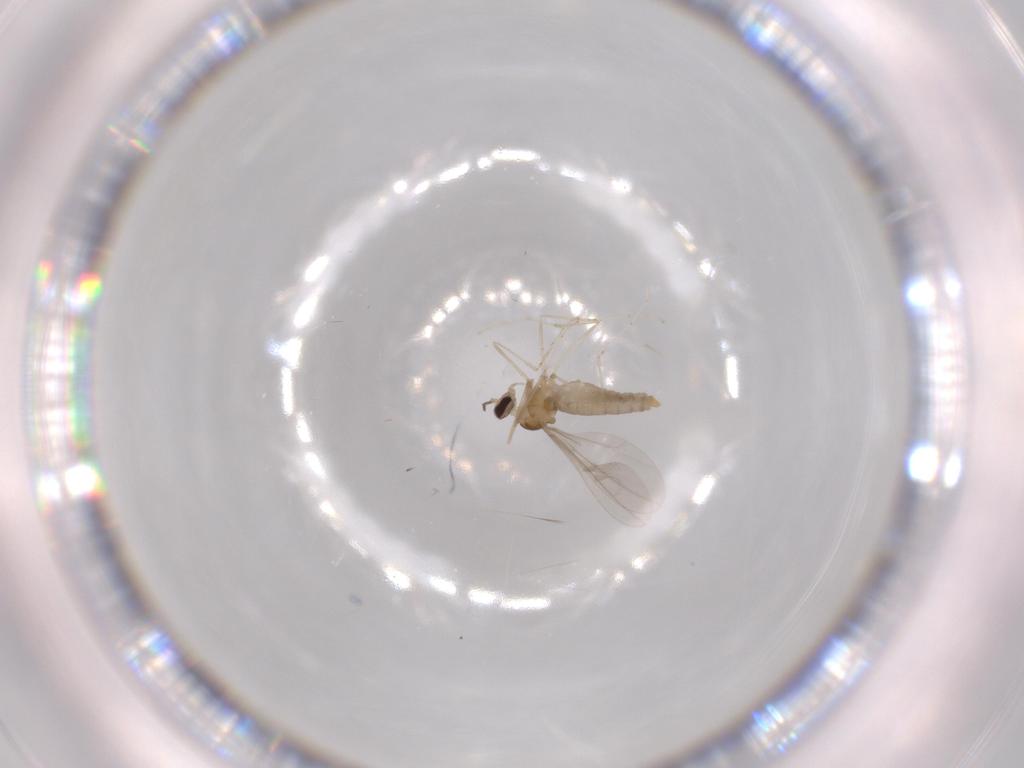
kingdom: Animalia
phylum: Arthropoda
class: Insecta
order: Diptera
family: Cecidomyiidae
